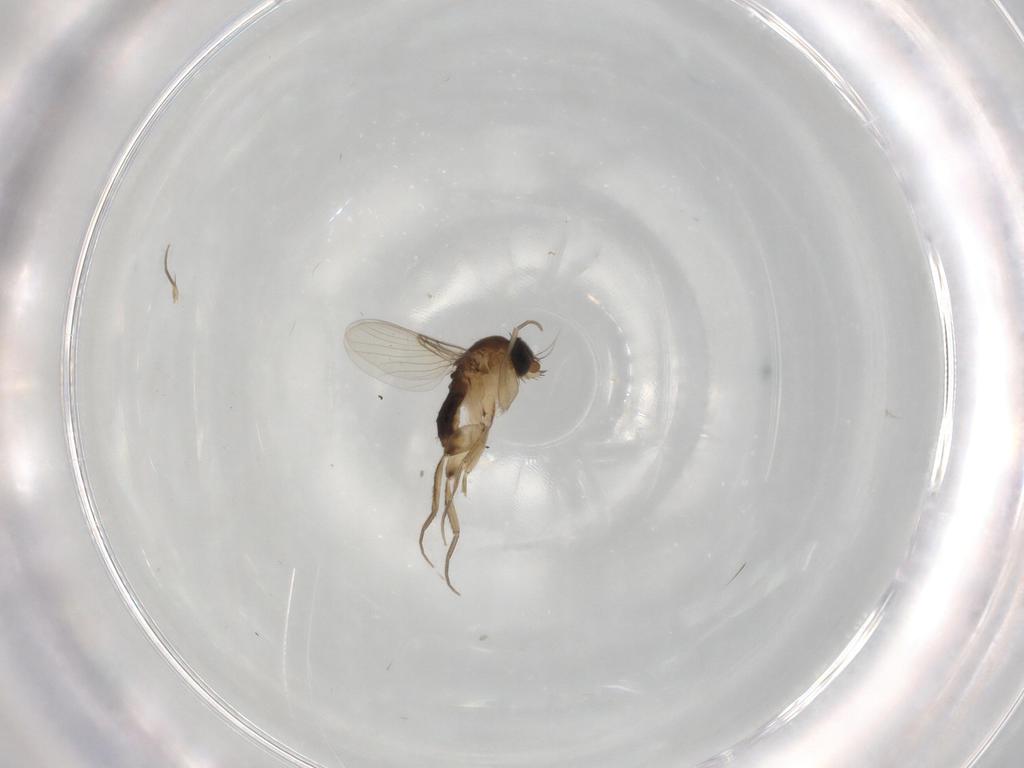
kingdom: Animalia
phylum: Arthropoda
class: Insecta
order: Diptera
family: Phoridae
